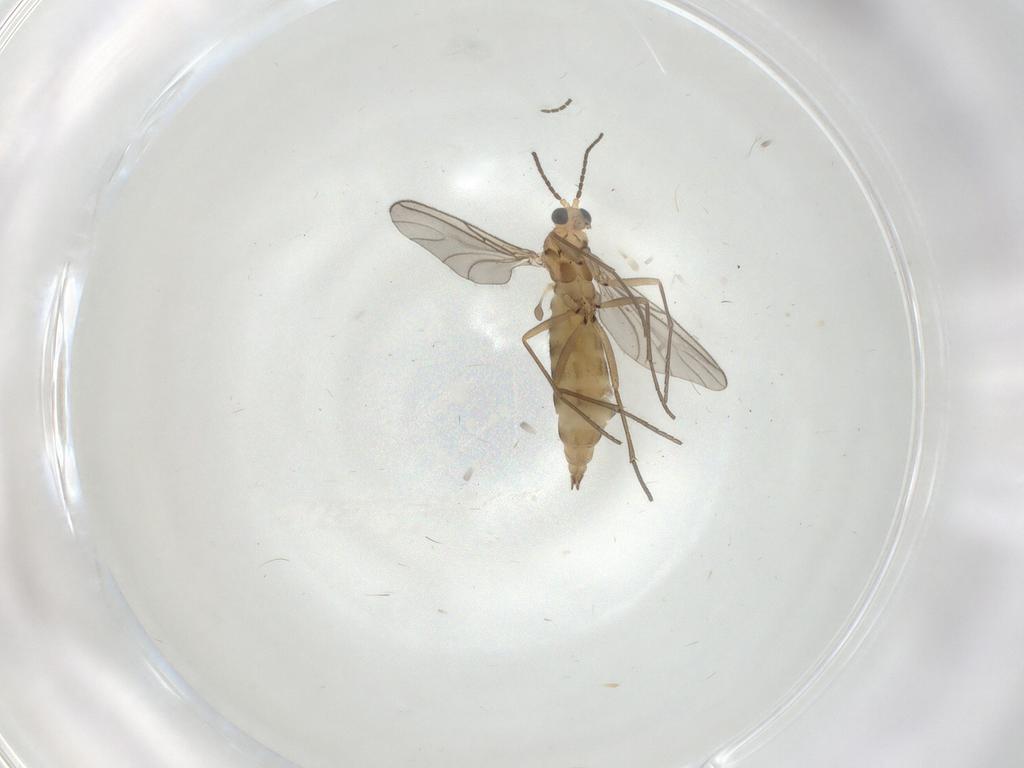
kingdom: Animalia
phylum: Arthropoda
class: Insecta
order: Diptera
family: Sciaridae
